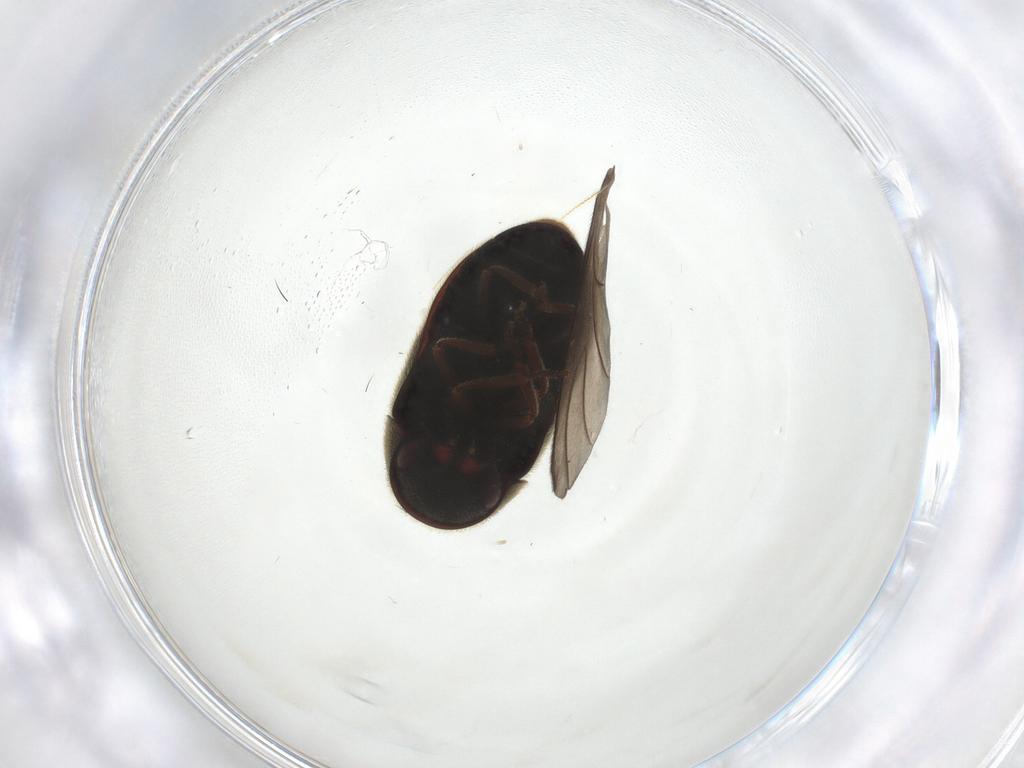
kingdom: Animalia
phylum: Arthropoda
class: Insecta
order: Coleoptera
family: Ptinidae
